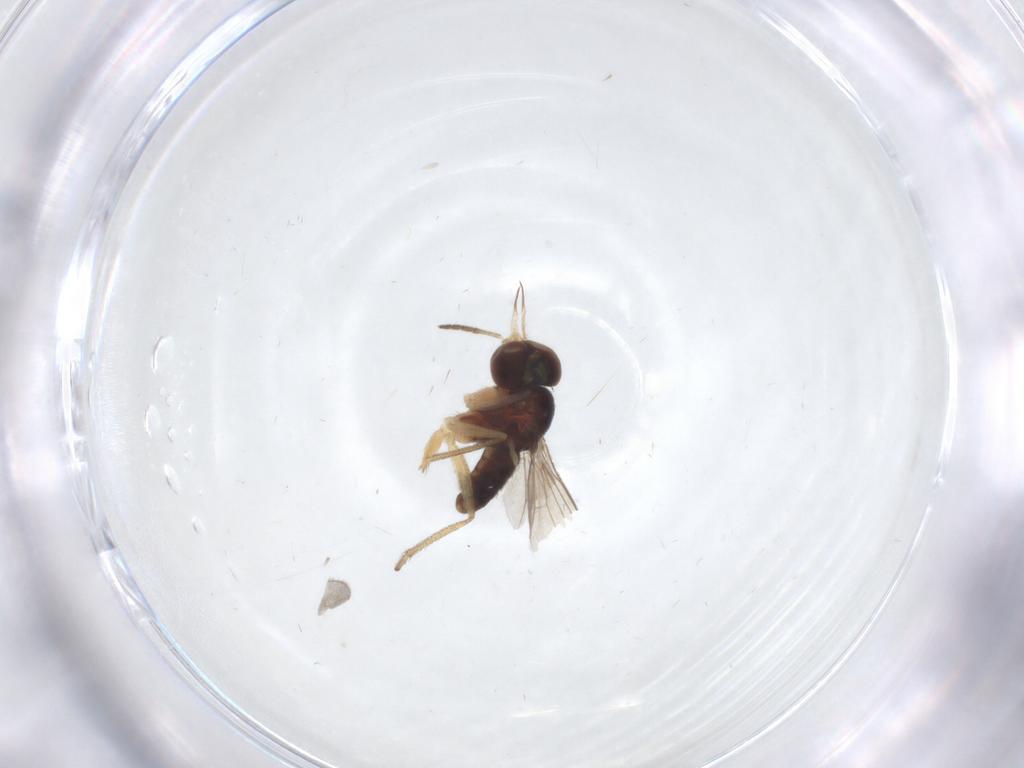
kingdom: Animalia
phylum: Arthropoda
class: Insecta
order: Diptera
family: Dolichopodidae
